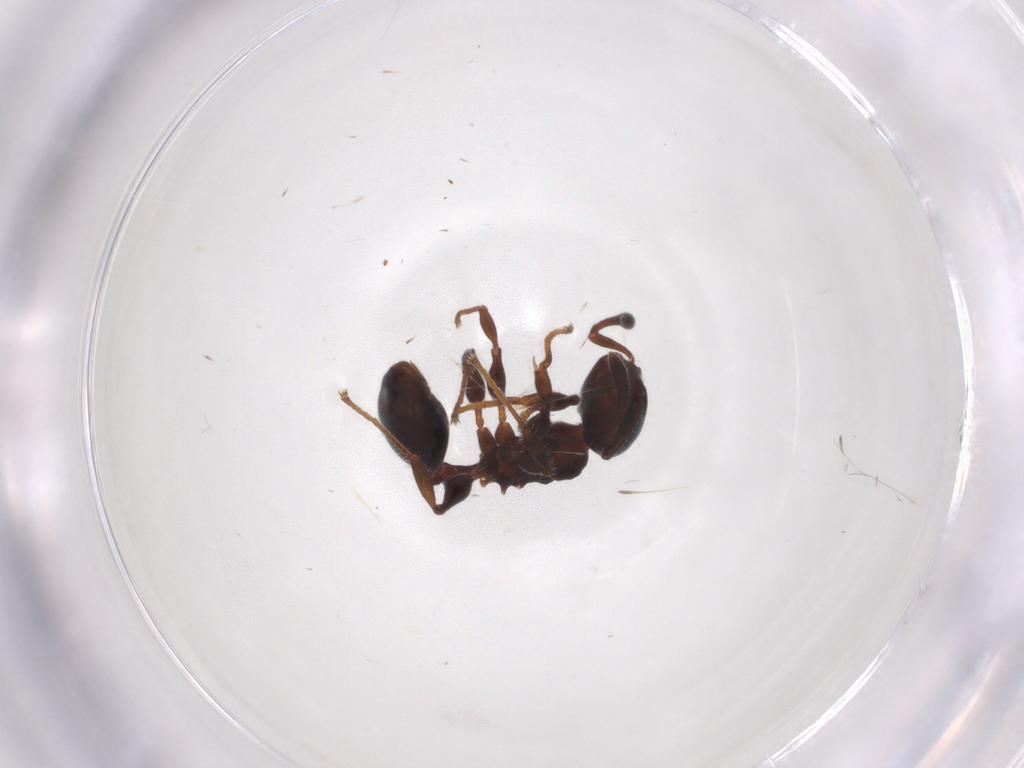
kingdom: Animalia
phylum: Arthropoda
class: Insecta
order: Hymenoptera
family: Formicidae
